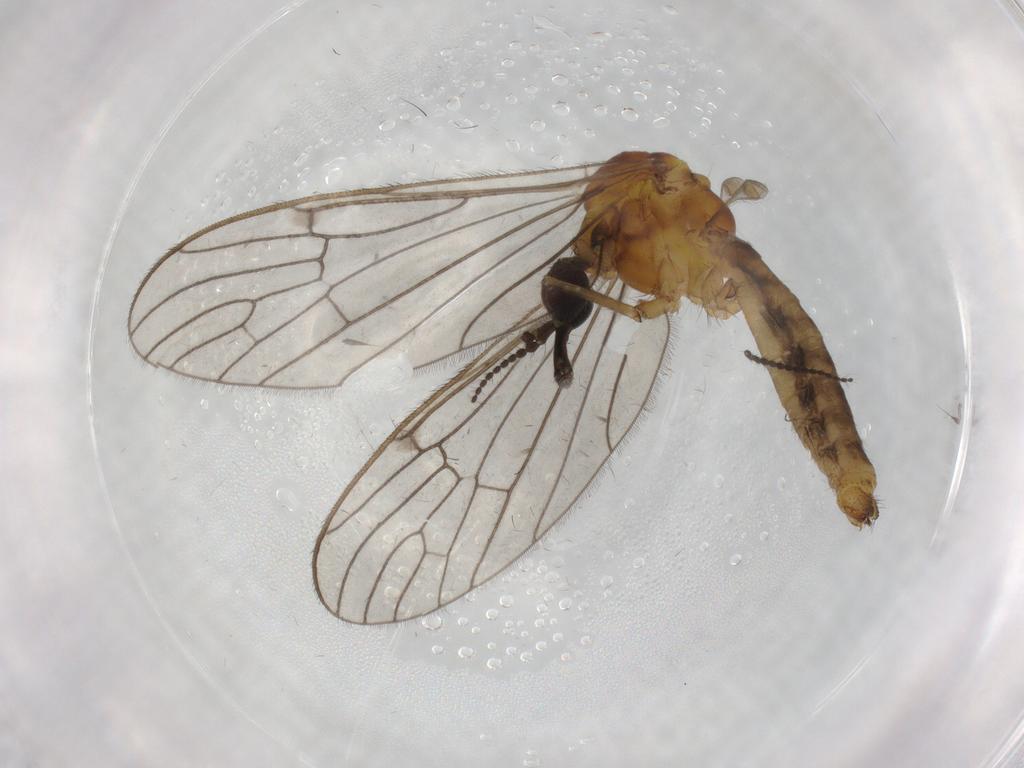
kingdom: Animalia
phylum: Arthropoda
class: Insecta
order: Diptera
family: Chironomidae
